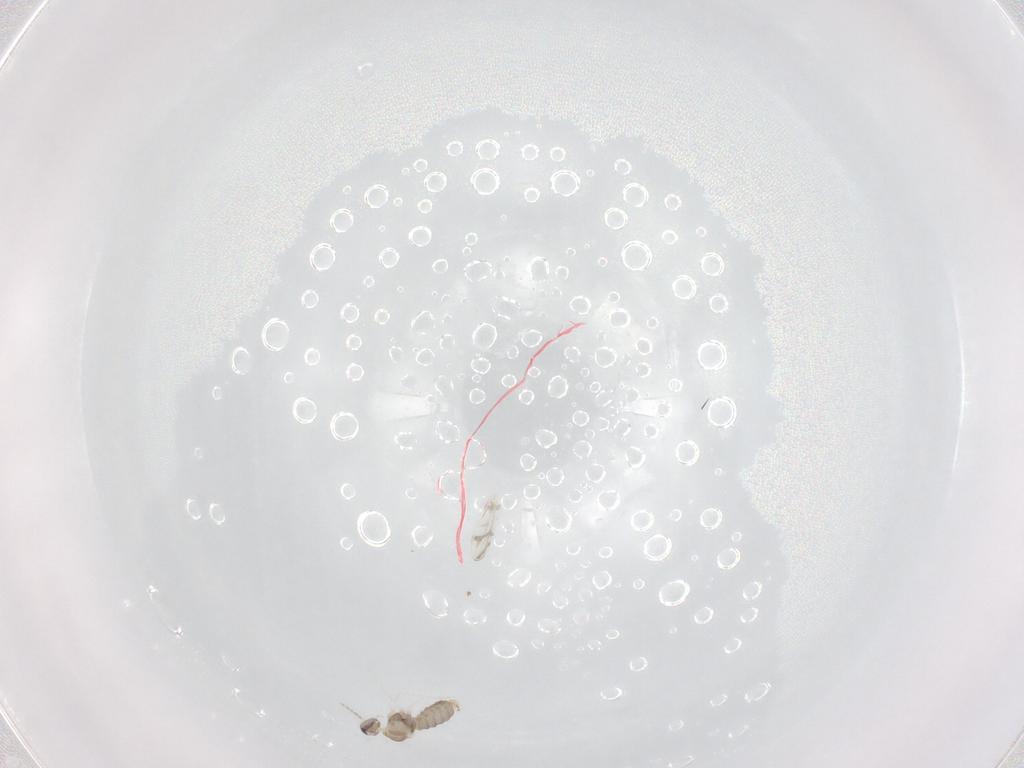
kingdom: Animalia
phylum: Arthropoda
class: Insecta
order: Diptera
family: Cecidomyiidae
